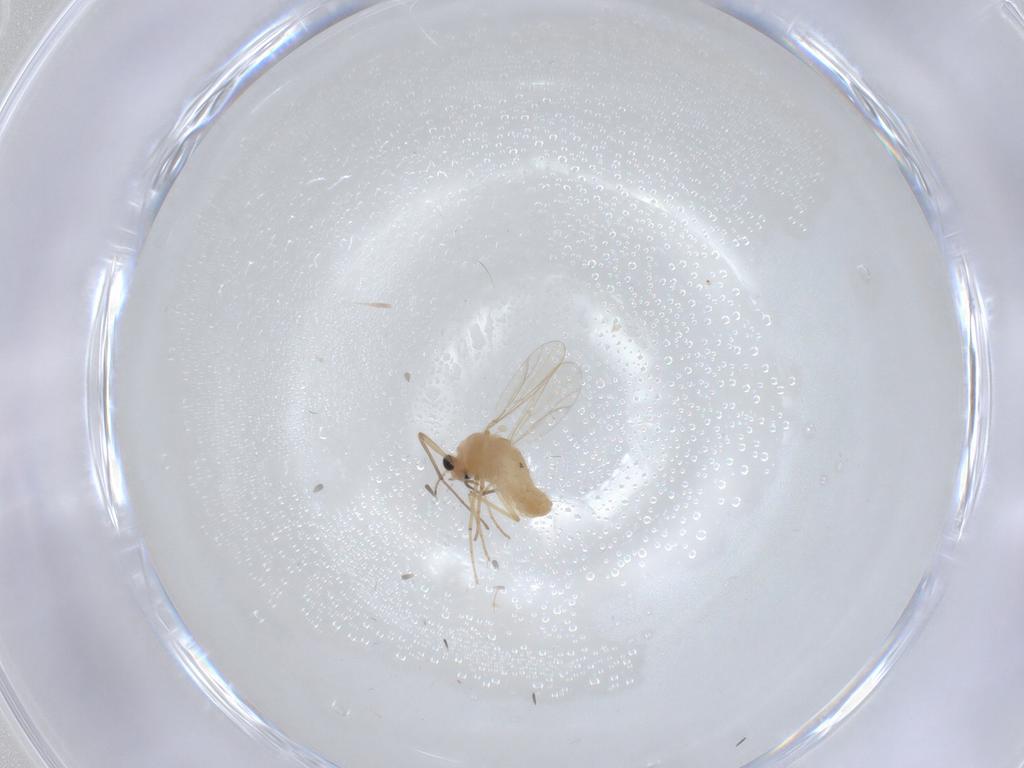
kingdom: Animalia
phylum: Arthropoda
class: Insecta
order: Diptera
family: Chironomidae
